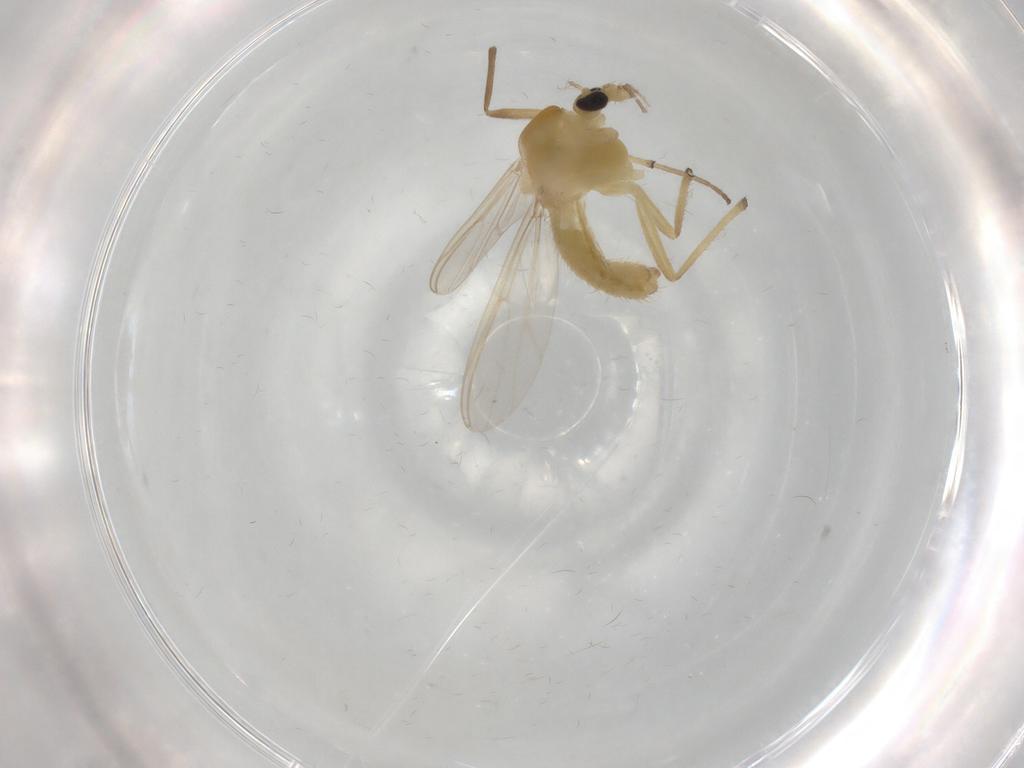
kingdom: Animalia
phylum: Arthropoda
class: Insecta
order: Diptera
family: Chironomidae
